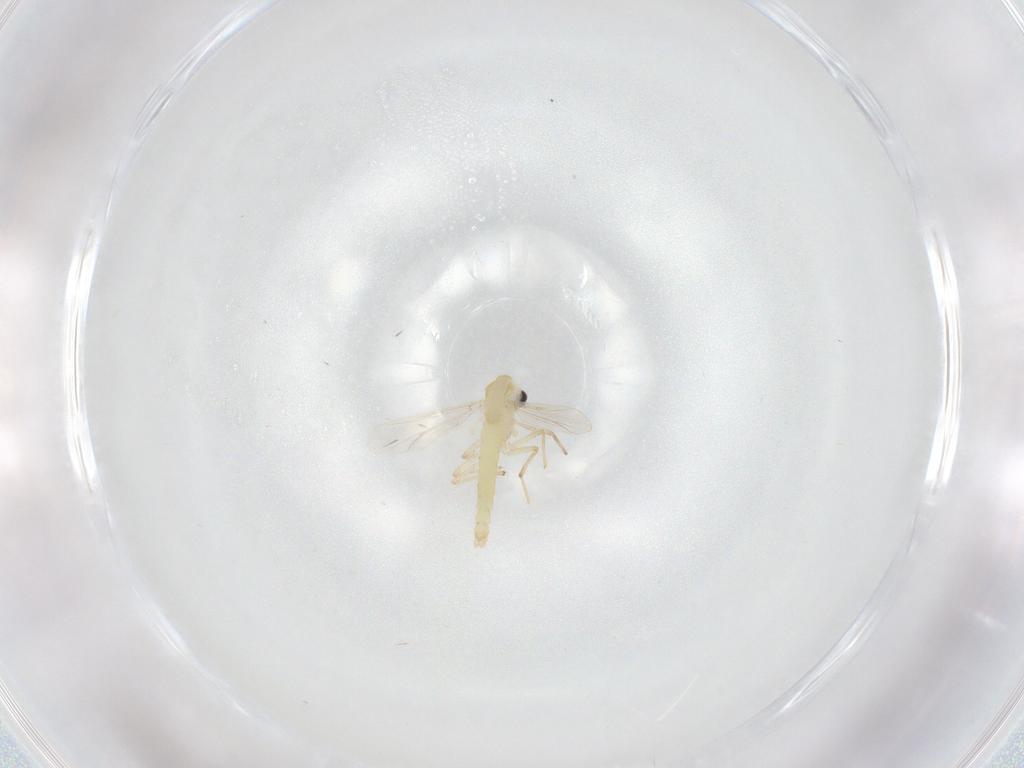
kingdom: Animalia
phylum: Arthropoda
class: Insecta
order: Diptera
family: Chironomidae
